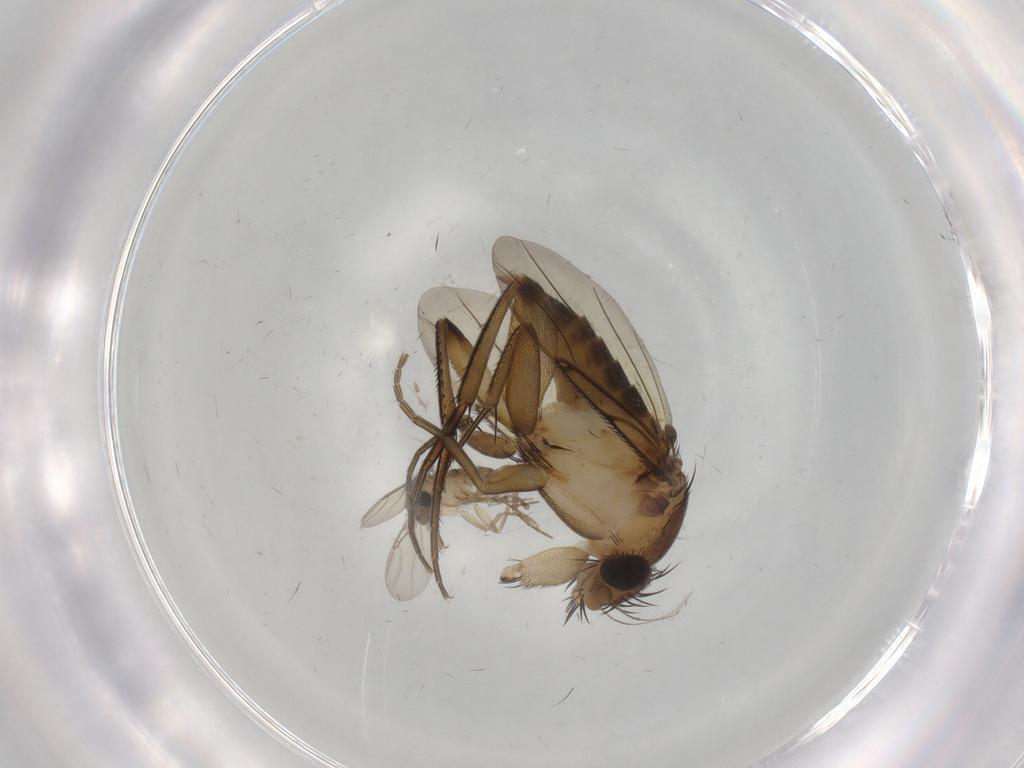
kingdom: Animalia
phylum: Arthropoda
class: Insecta
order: Diptera
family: Phoridae
